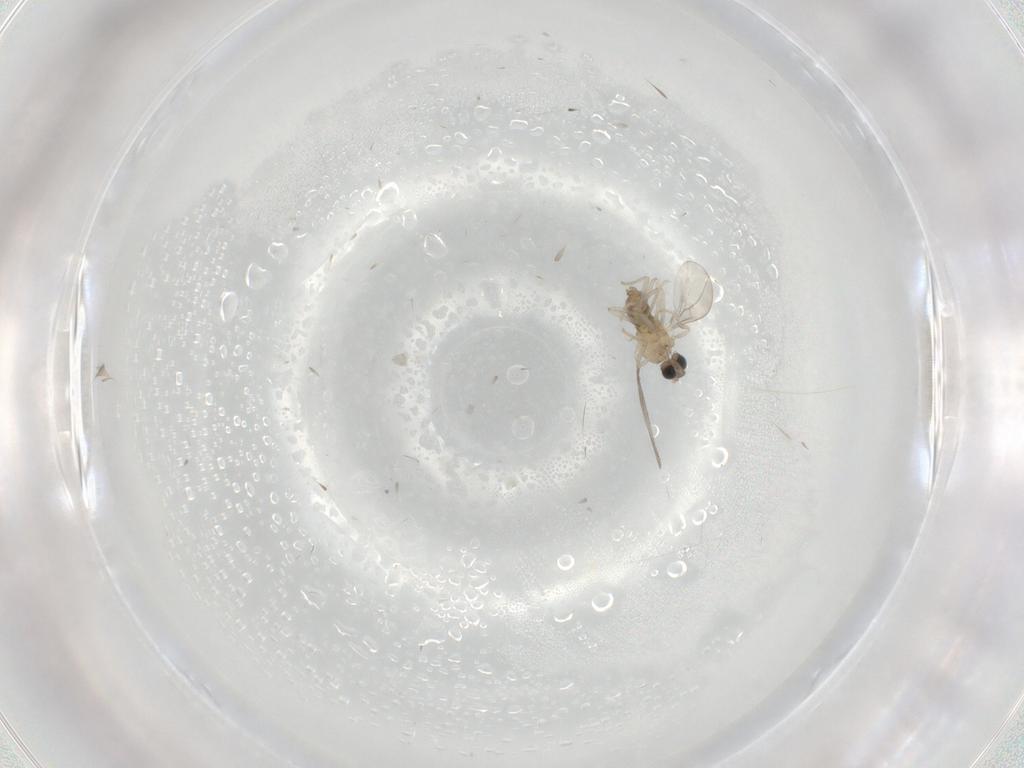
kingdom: Animalia
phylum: Arthropoda
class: Insecta
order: Diptera
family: Cecidomyiidae
